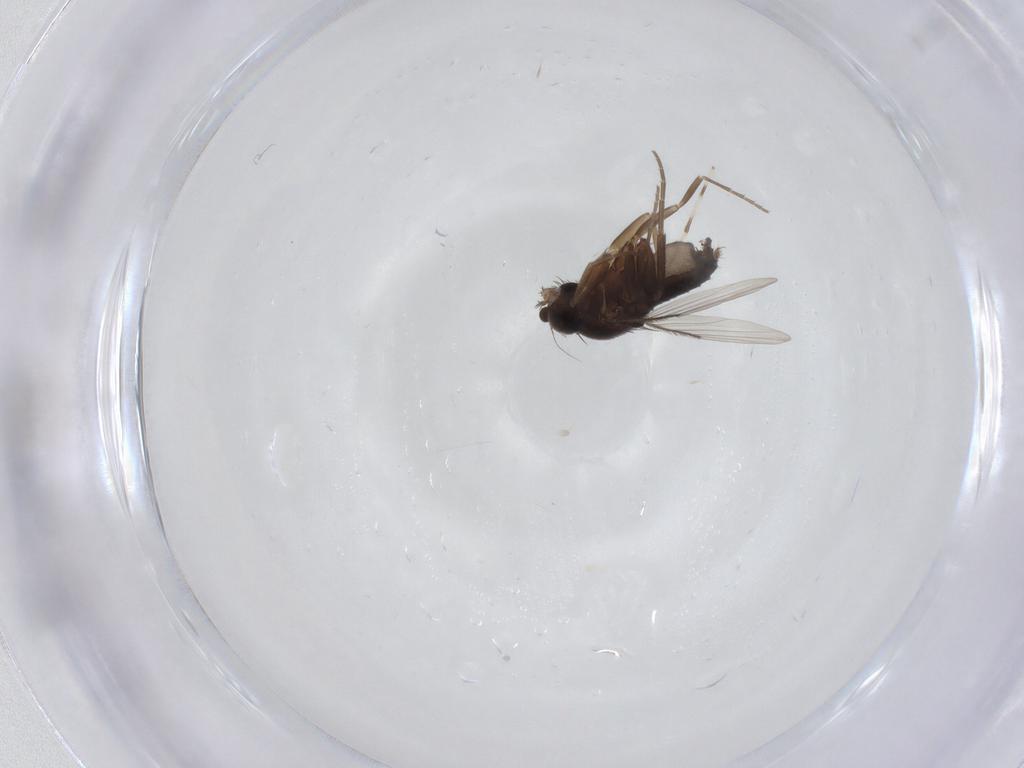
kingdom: Animalia
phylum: Arthropoda
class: Insecta
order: Diptera
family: Phoridae
